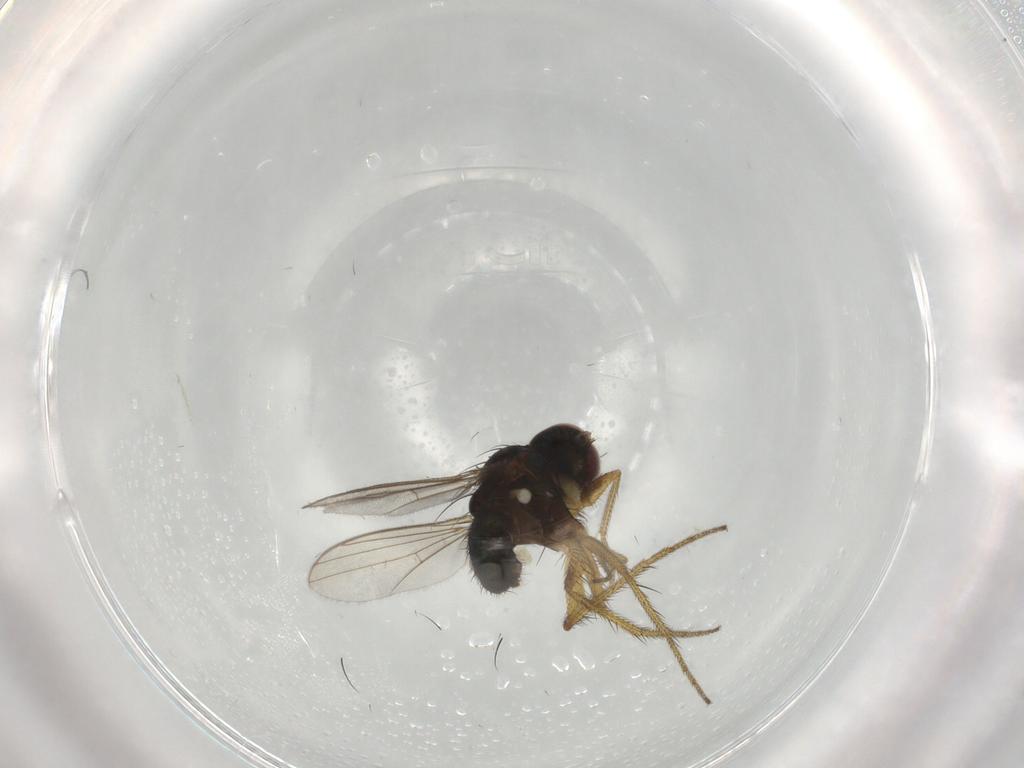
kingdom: Animalia
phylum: Arthropoda
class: Insecta
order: Diptera
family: Dolichopodidae
